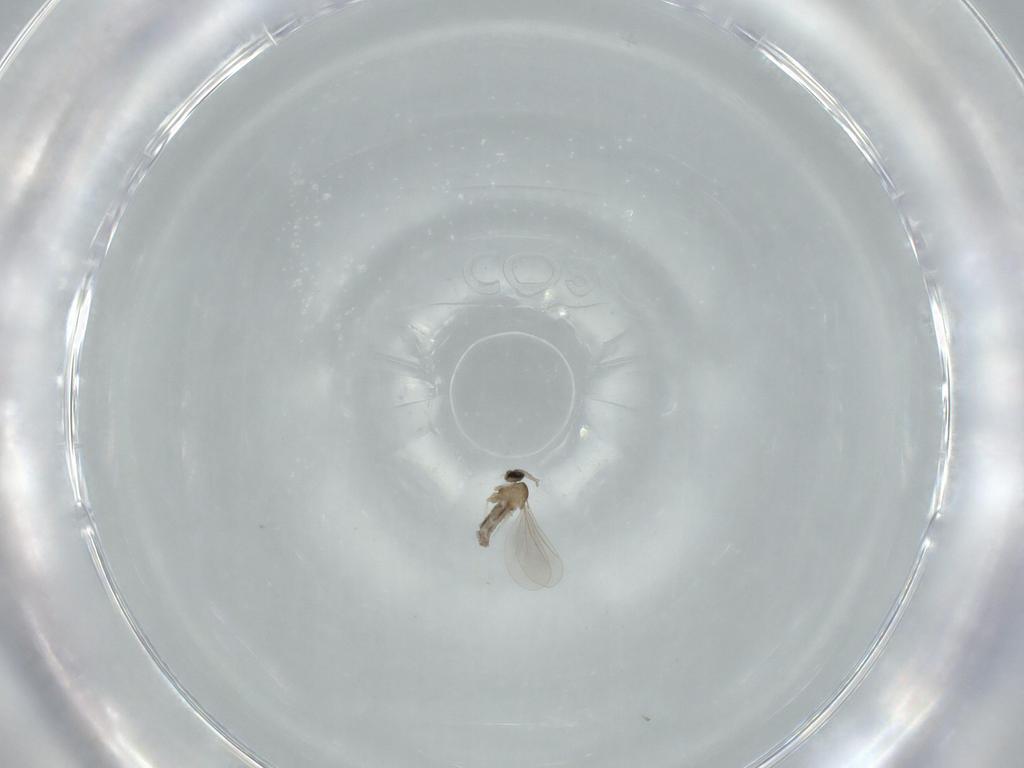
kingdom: Animalia
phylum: Arthropoda
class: Insecta
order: Diptera
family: Cecidomyiidae
